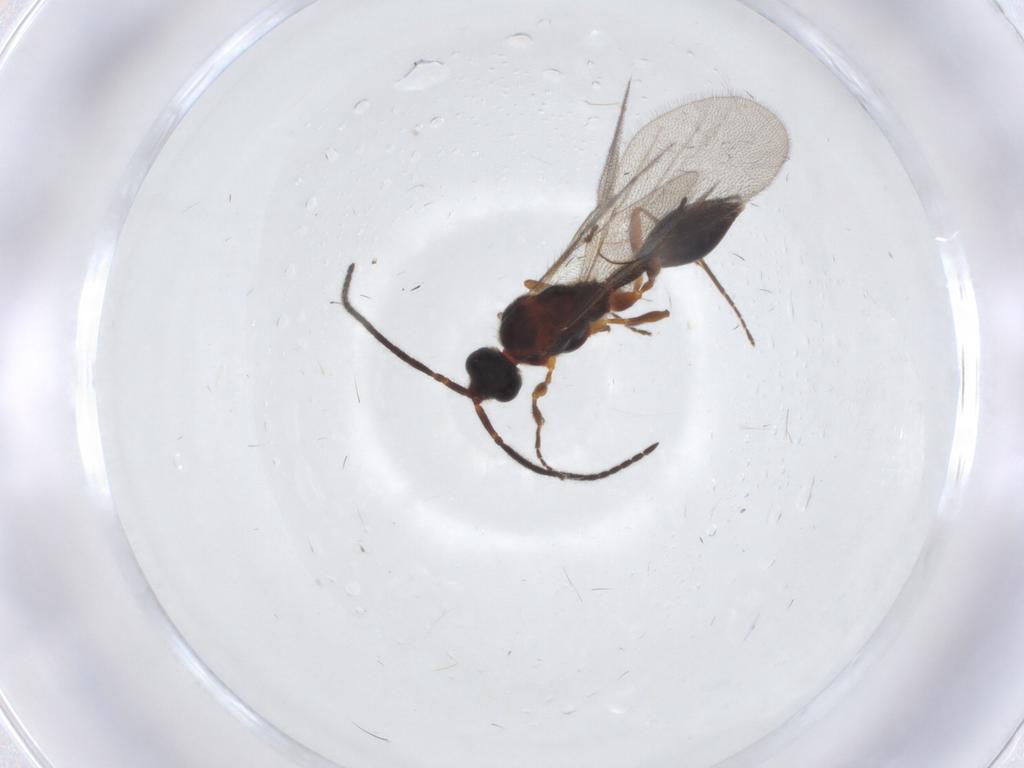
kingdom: Animalia
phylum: Arthropoda
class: Insecta
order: Hymenoptera
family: Diapriidae
